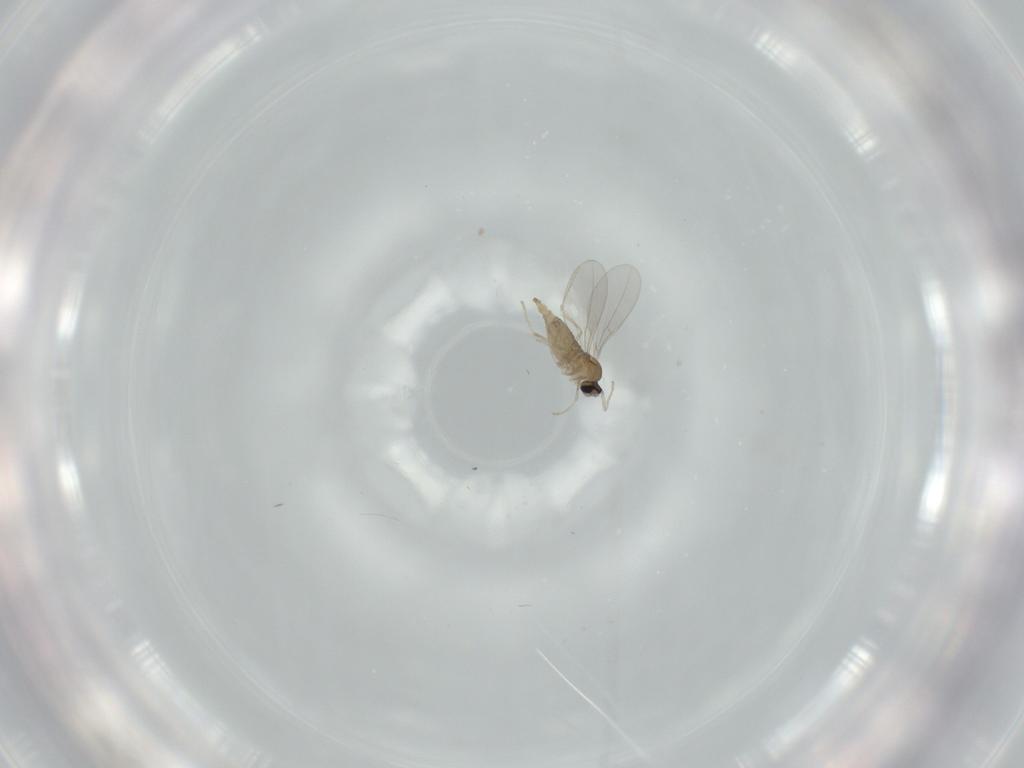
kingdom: Animalia
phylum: Arthropoda
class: Insecta
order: Diptera
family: Cecidomyiidae
